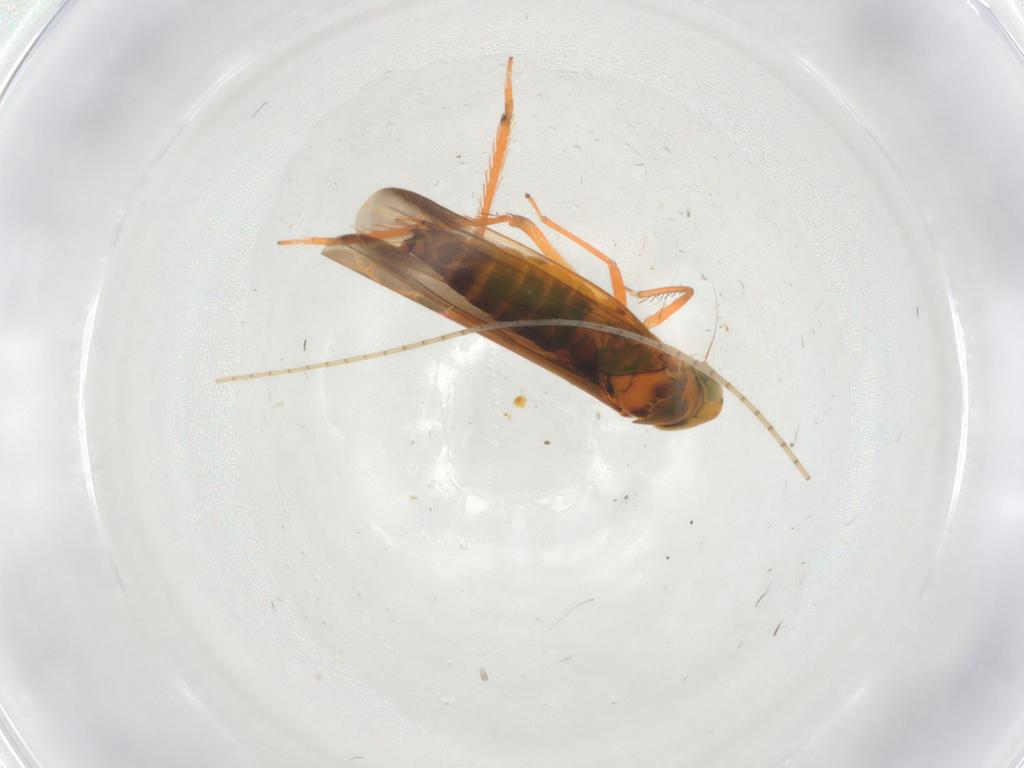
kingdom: Animalia
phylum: Arthropoda
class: Insecta
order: Hemiptera
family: Cicadellidae
